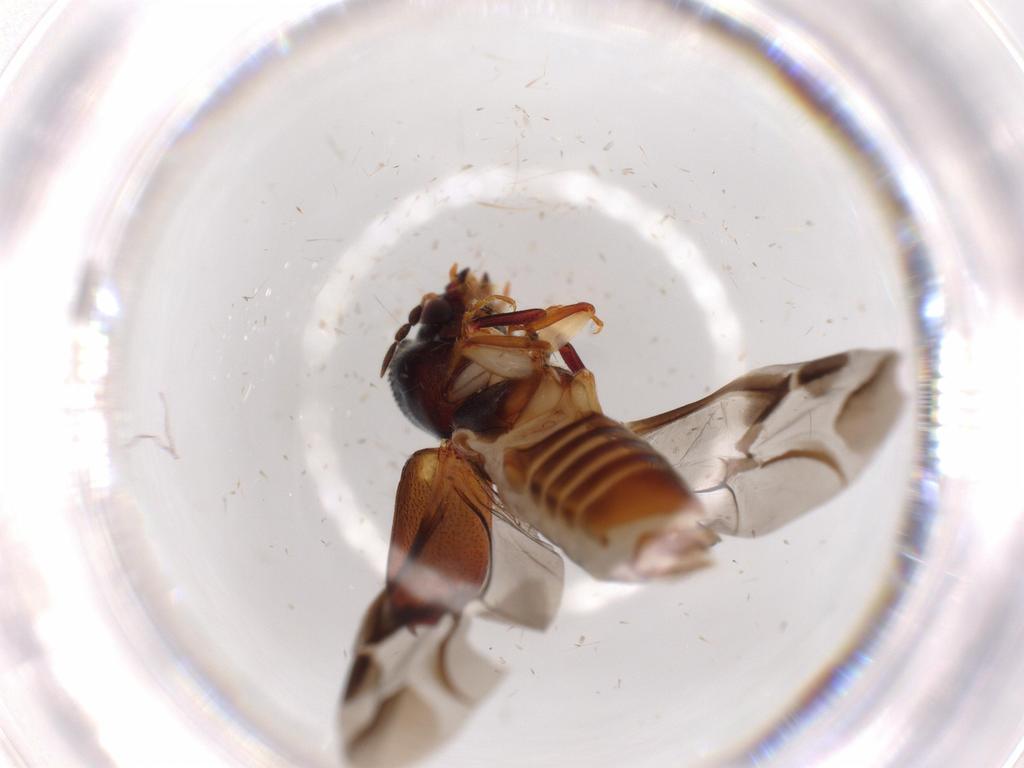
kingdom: Animalia
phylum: Arthropoda
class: Insecta
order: Coleoptera
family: Bostrichidae
